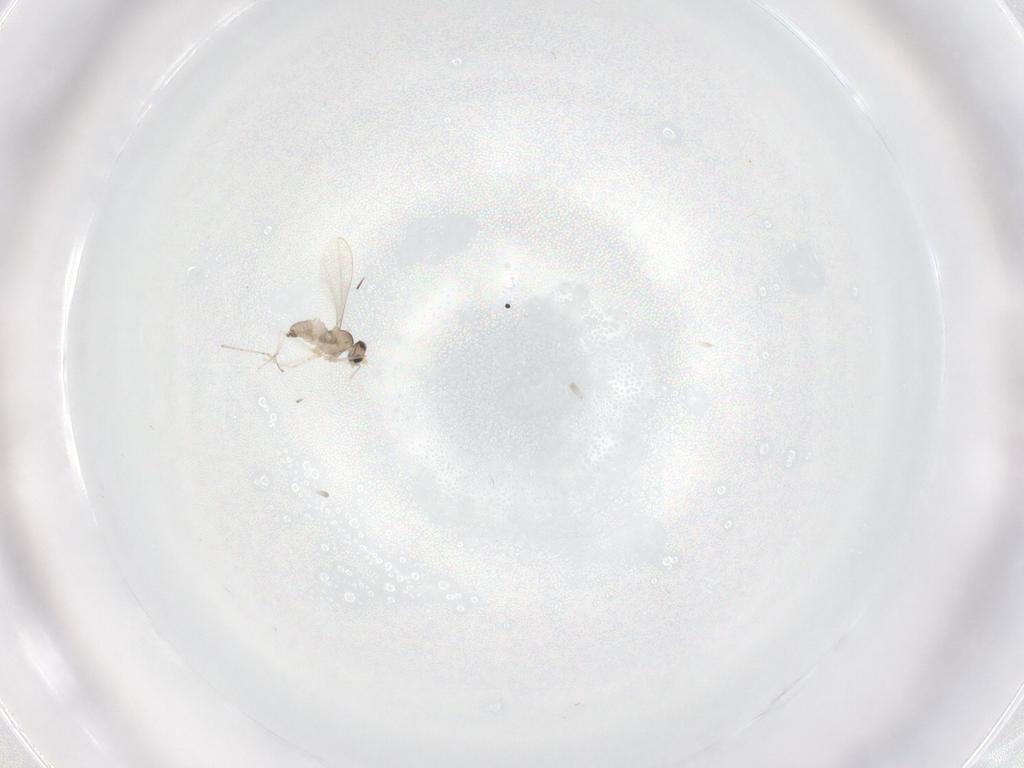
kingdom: Animalia
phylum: Arthropoda
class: Insecta
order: Diptera
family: Cecidomyiidae
